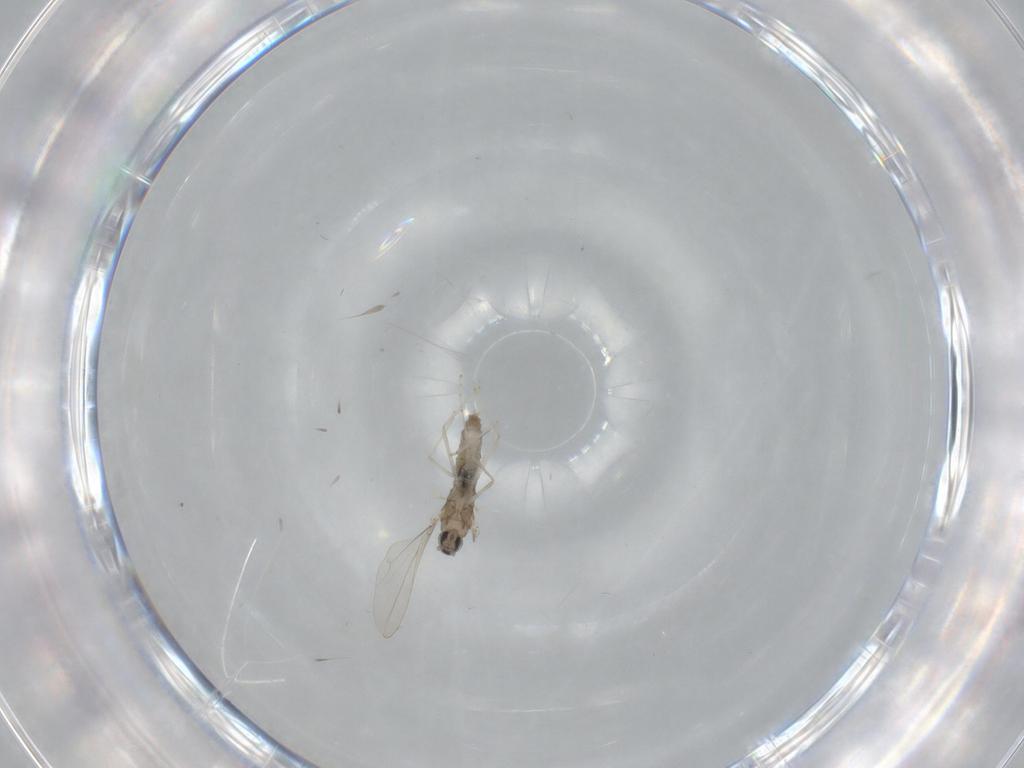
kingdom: Animalia
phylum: Arthropoda
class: Insecta
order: Diptera
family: Cecidomyiidae
